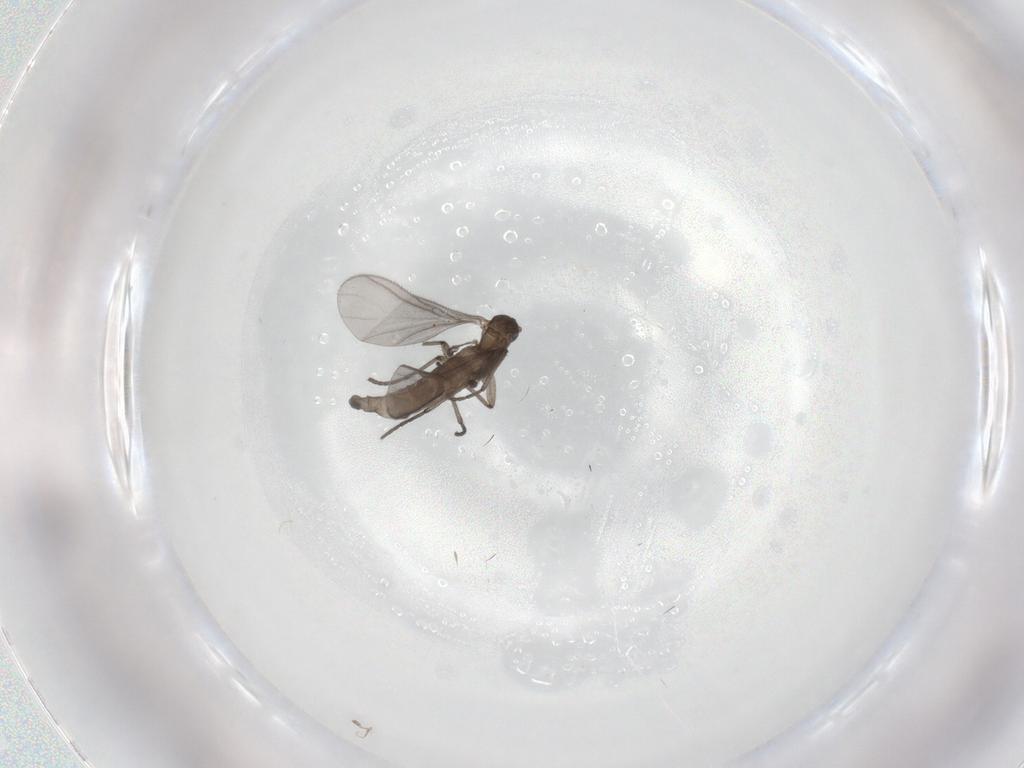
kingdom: Animalia
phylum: Arthropoda
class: Insecta
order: Diptera
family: Sciaridae
